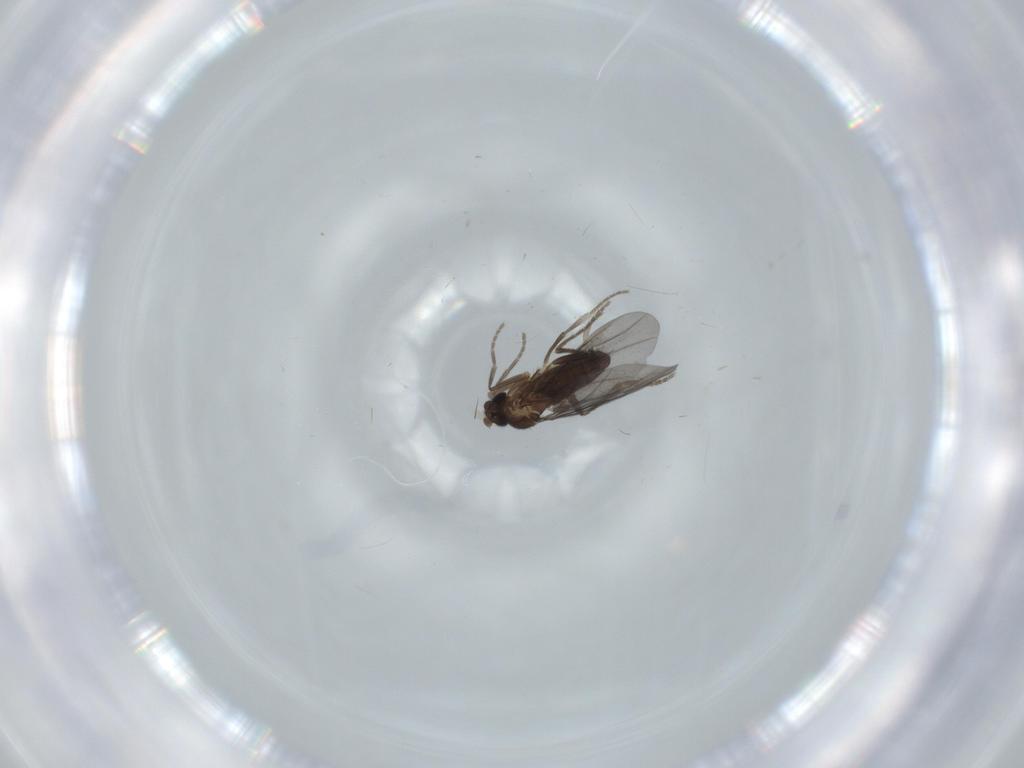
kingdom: Animalia
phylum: Arthropoda
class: Insecta
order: Diptera
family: Phoridae
